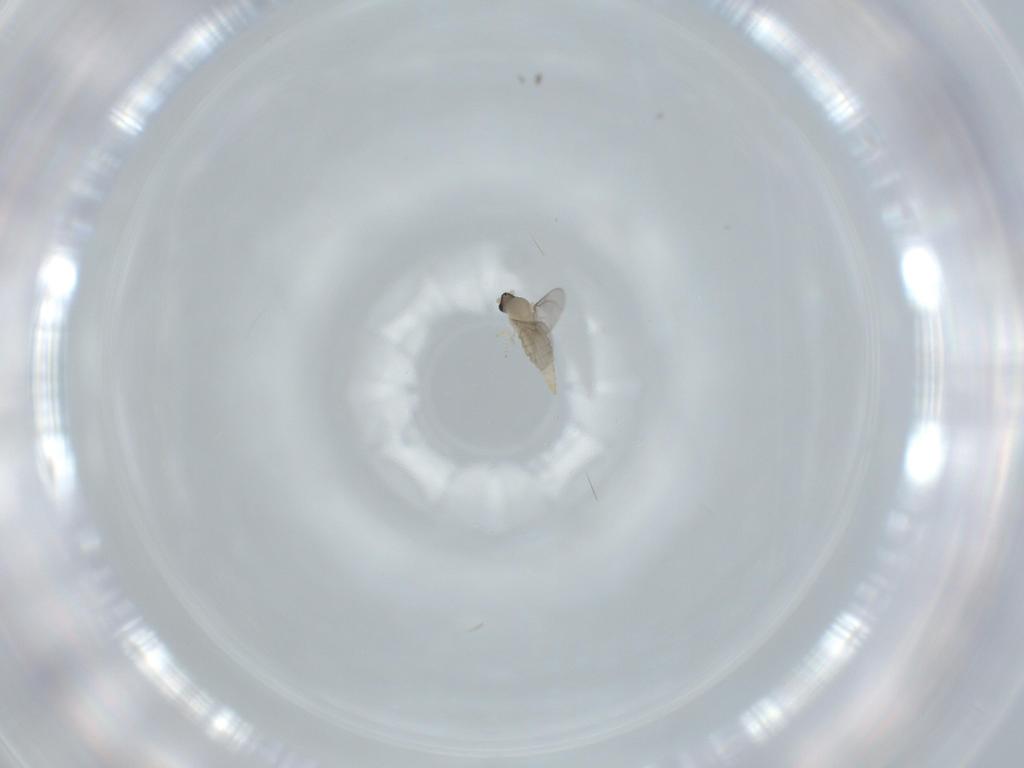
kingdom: Animalia
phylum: Arthropoda
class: Insecta
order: Diptera
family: Cecidomyiidae
